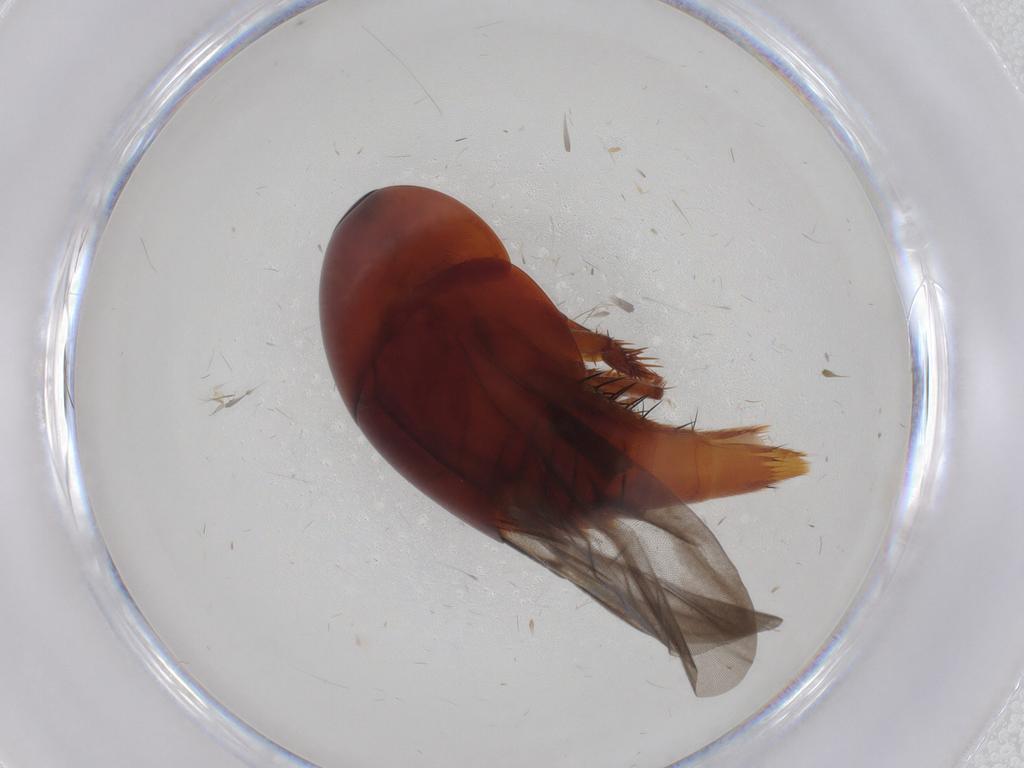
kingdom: Animalia
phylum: Arthropoda
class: Insecta
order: Coleoptera
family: Staphylinidae
